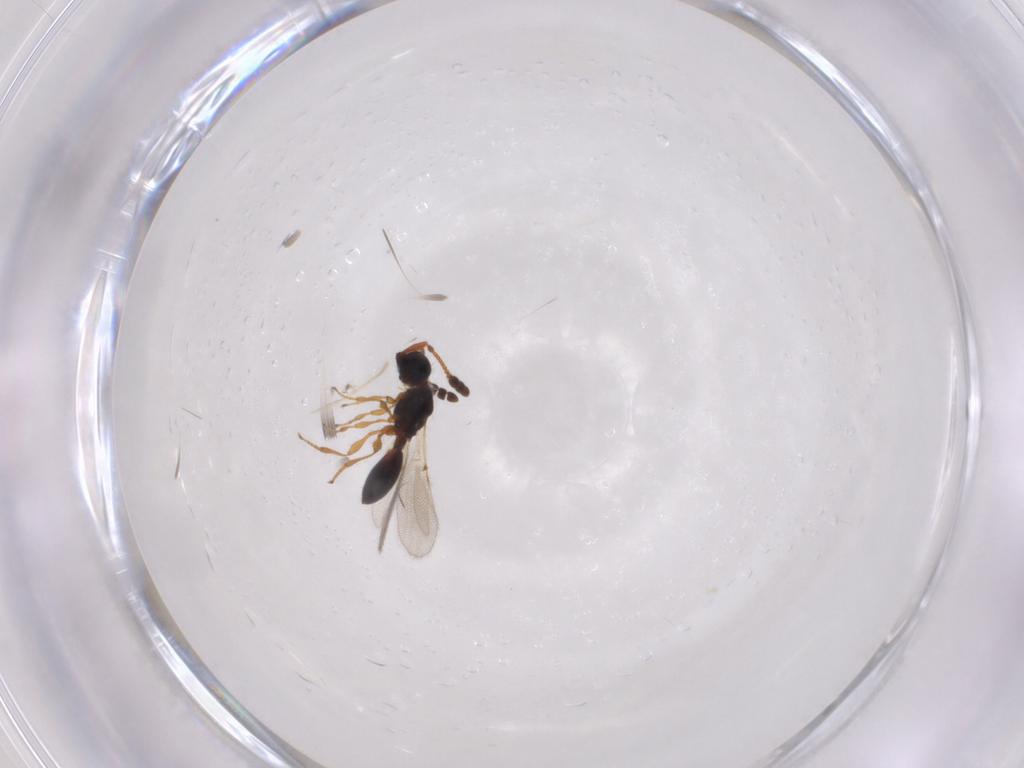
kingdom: Animalia
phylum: Arthropoda
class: Insecta
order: Hymenoptera
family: Diapriidae
